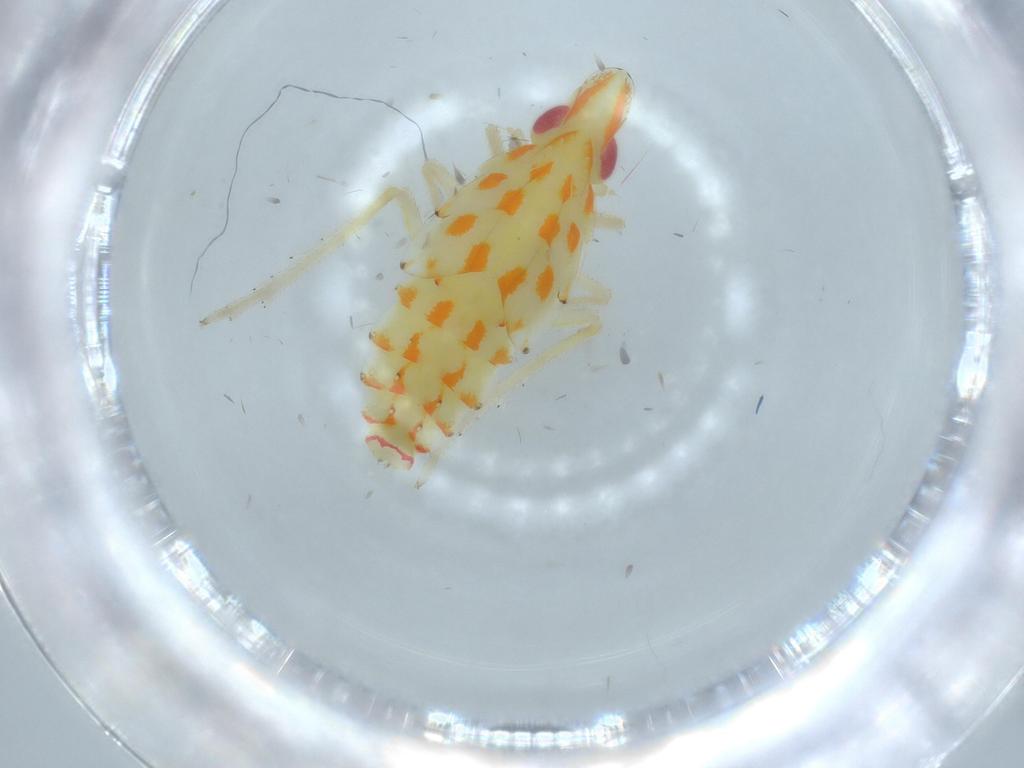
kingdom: Animalia
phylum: Arthropoda
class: Insecta
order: Hemiptera
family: Tropiduchidae
